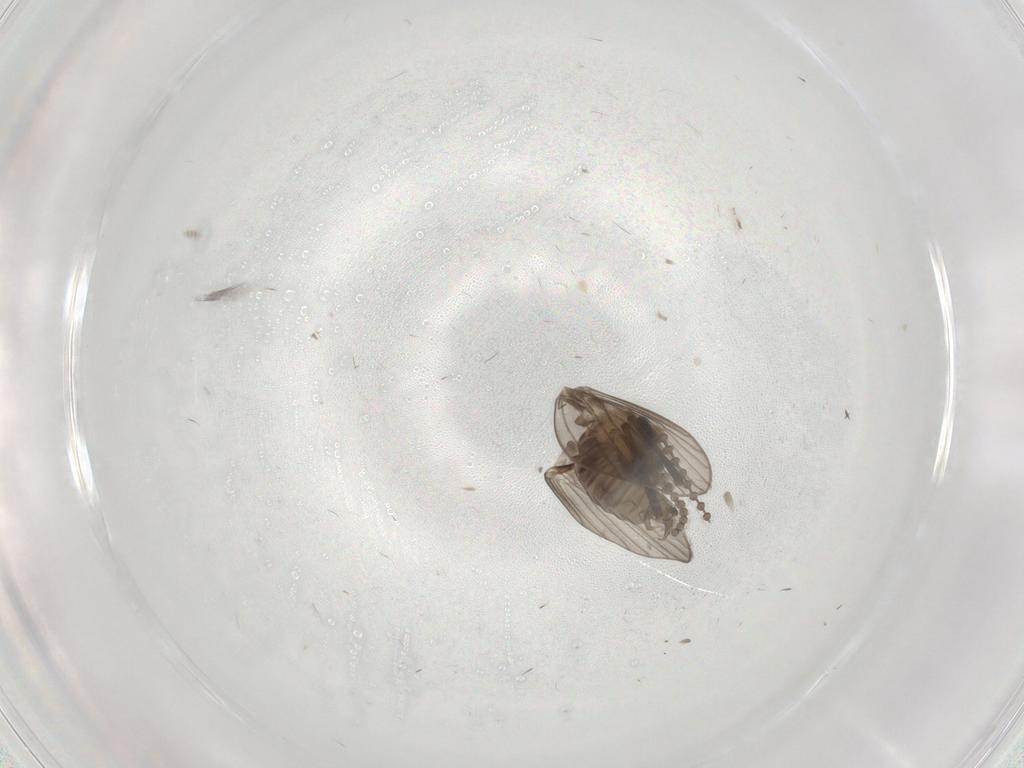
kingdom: Animalia
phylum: Arthropoda
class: Insecta
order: Diptera
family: Psychodidae
